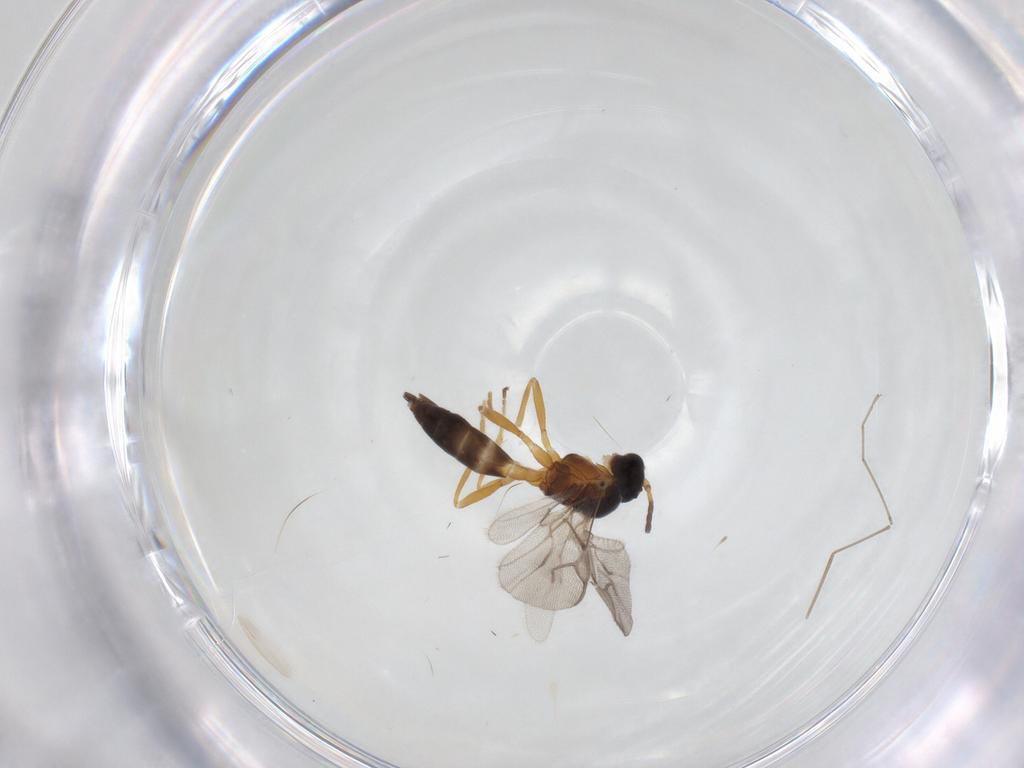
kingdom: Animalia
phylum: Arthropoda
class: Insecta
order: Hymenoptera
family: Braconidae
